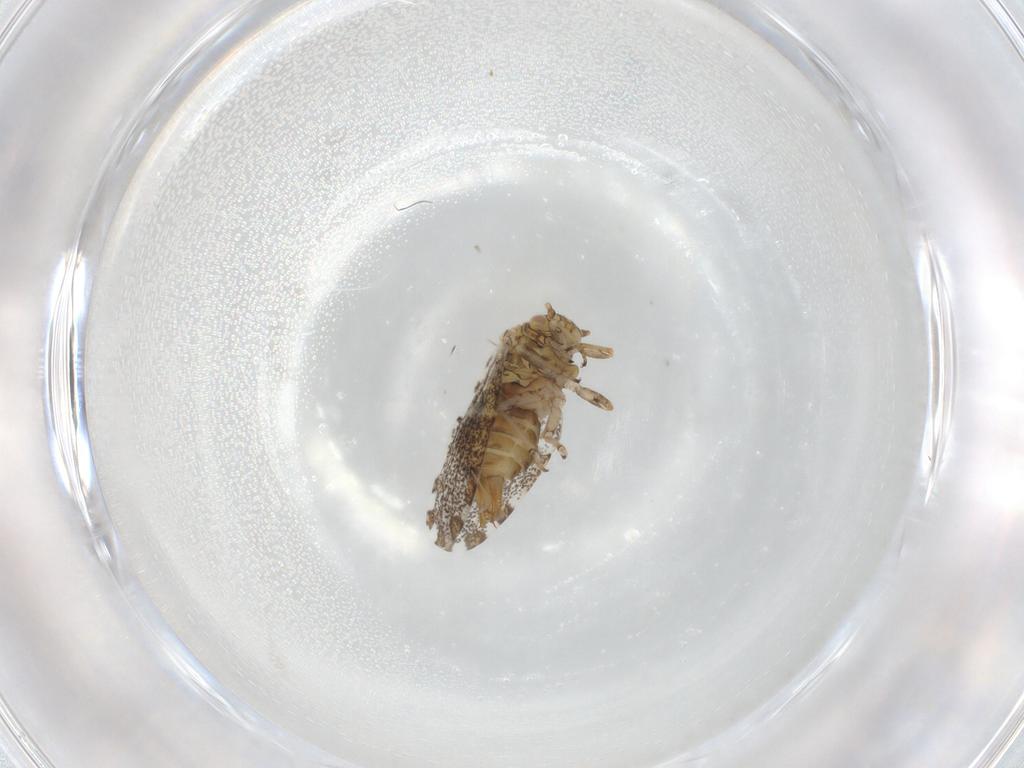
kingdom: Animalia
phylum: Arthropoda
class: Insecta
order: Hemiptera
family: Psylloidea_incertae_sedis
